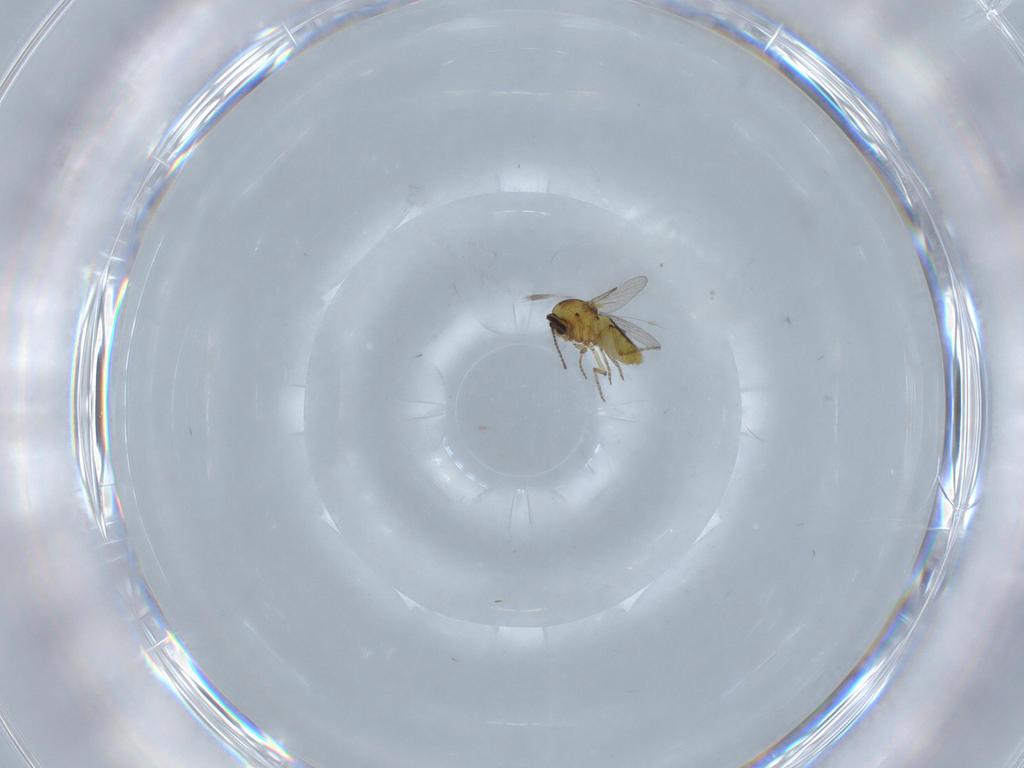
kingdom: Animalia
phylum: Arthropoda
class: Insecta
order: Diptera
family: Ceratopogonidae
